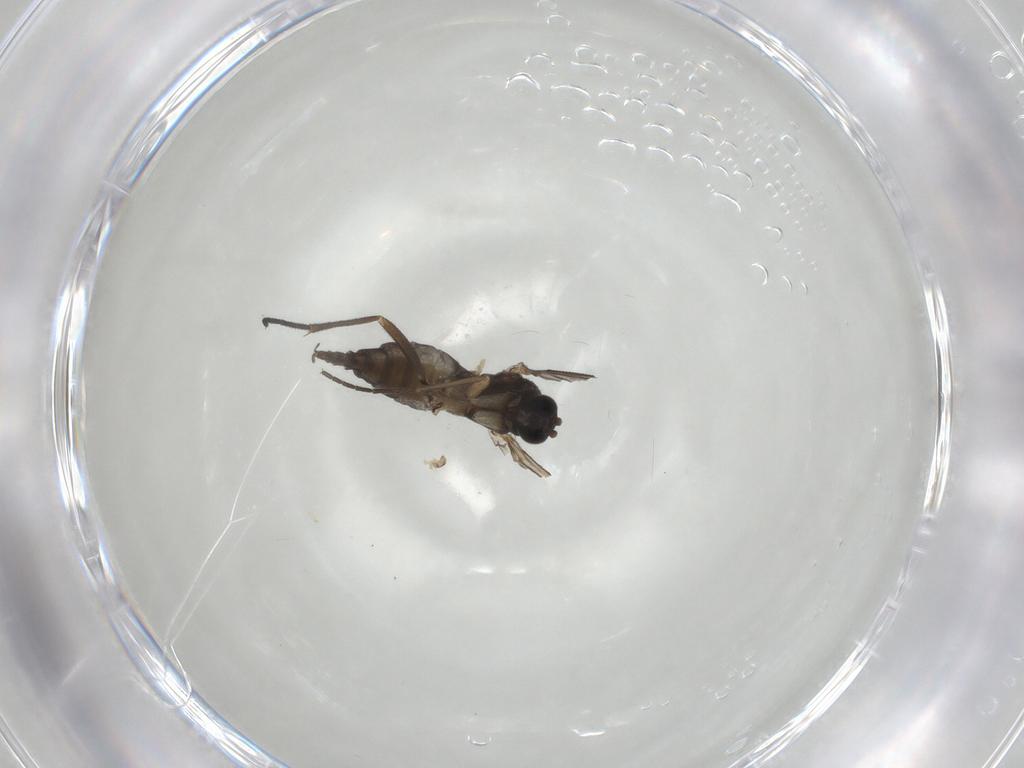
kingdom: Animalia
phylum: Arthropoda
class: Insecta
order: Diptera
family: Sciaridae
